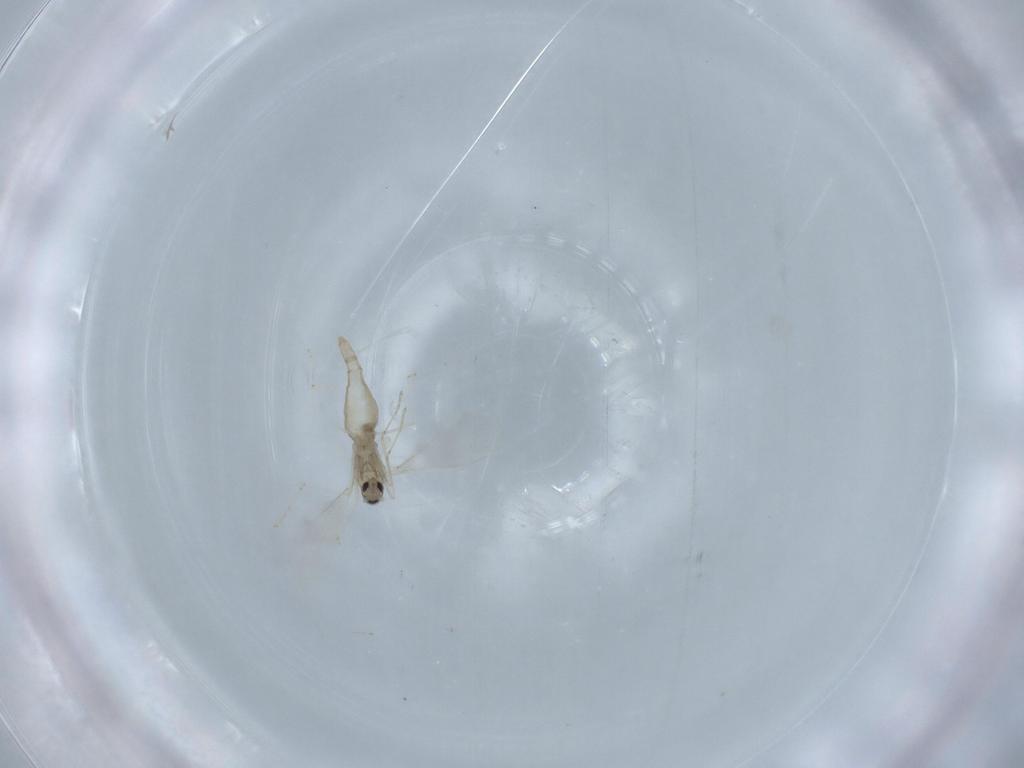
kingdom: Animalia
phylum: Arthropoda
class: Insecta
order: Diptera
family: Cecidomyiidae
